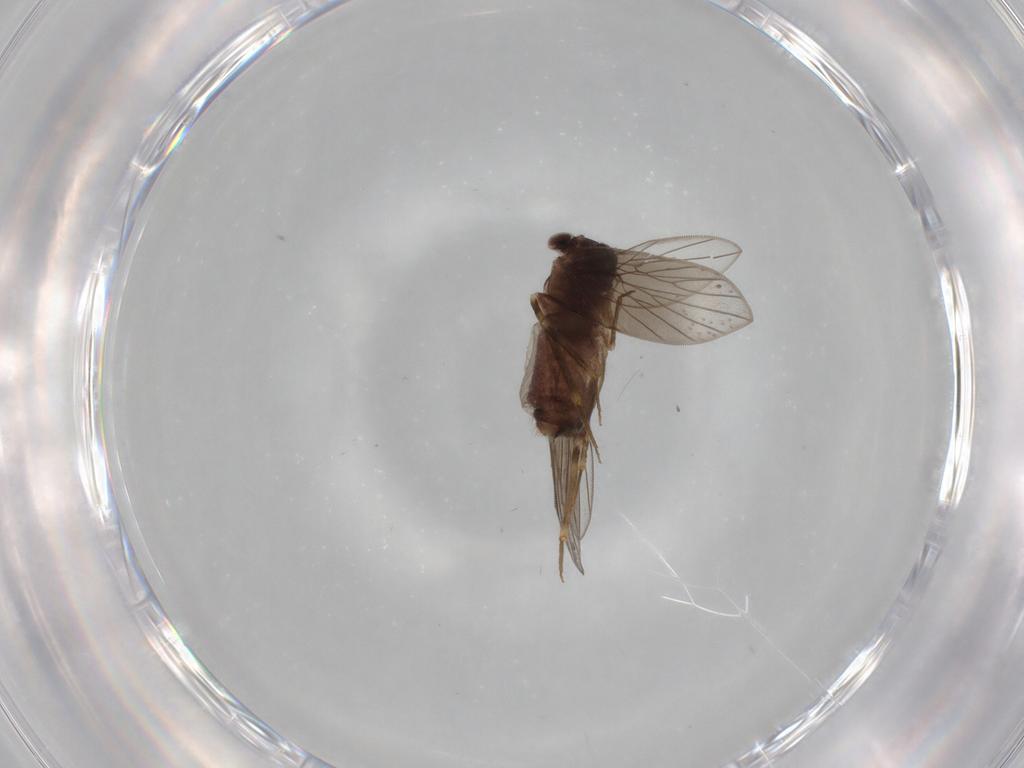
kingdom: Animalia
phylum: Arthropoda
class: Insecta
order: Psocodea
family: Lepidopsocidae
